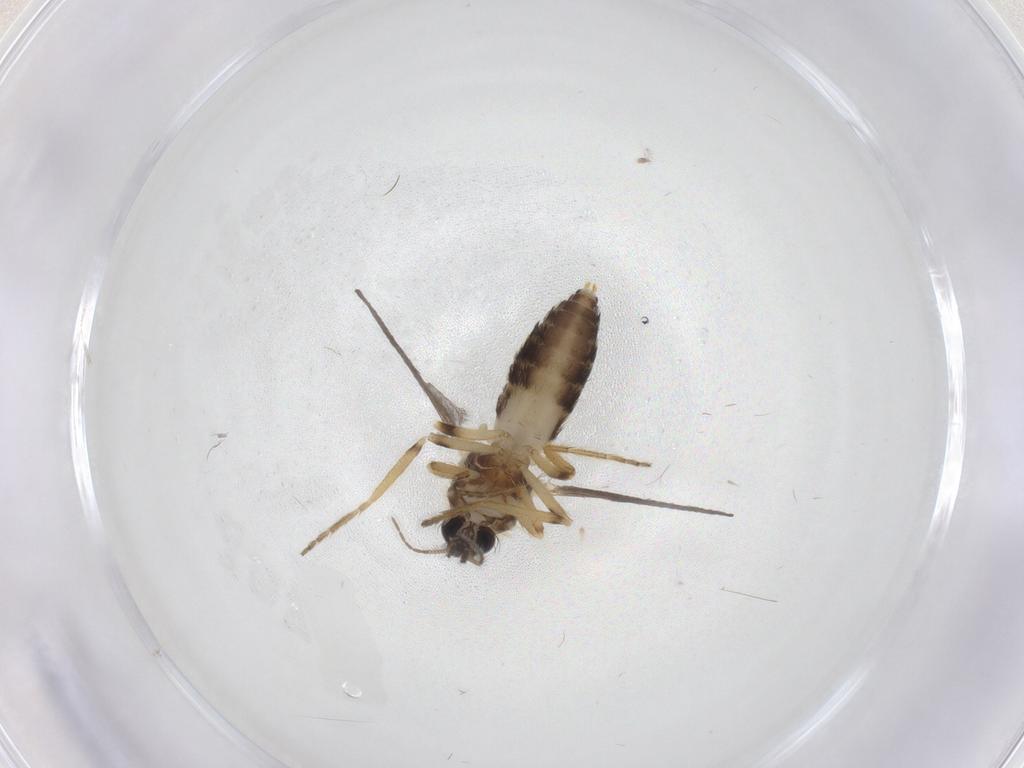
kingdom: Animalia
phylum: Arthropoda
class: Insecta
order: Diptera
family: Ceratopogonidae
